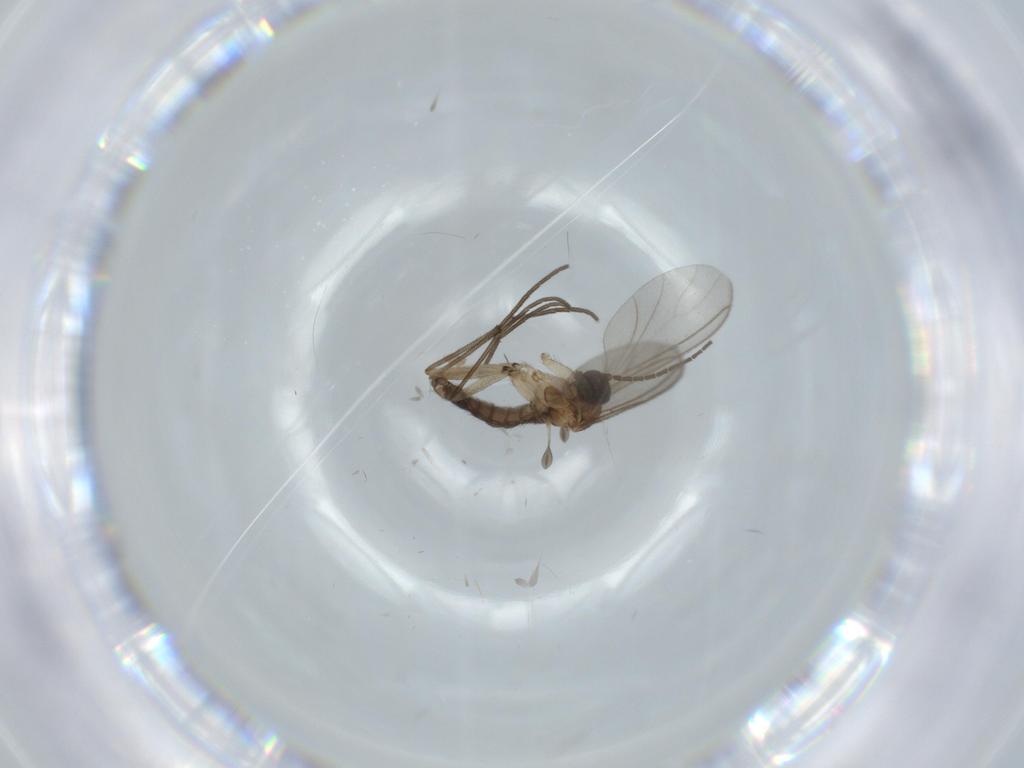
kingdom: Animalia
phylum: Arthropoda
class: Insecta
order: Diptera
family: Sciaridae
